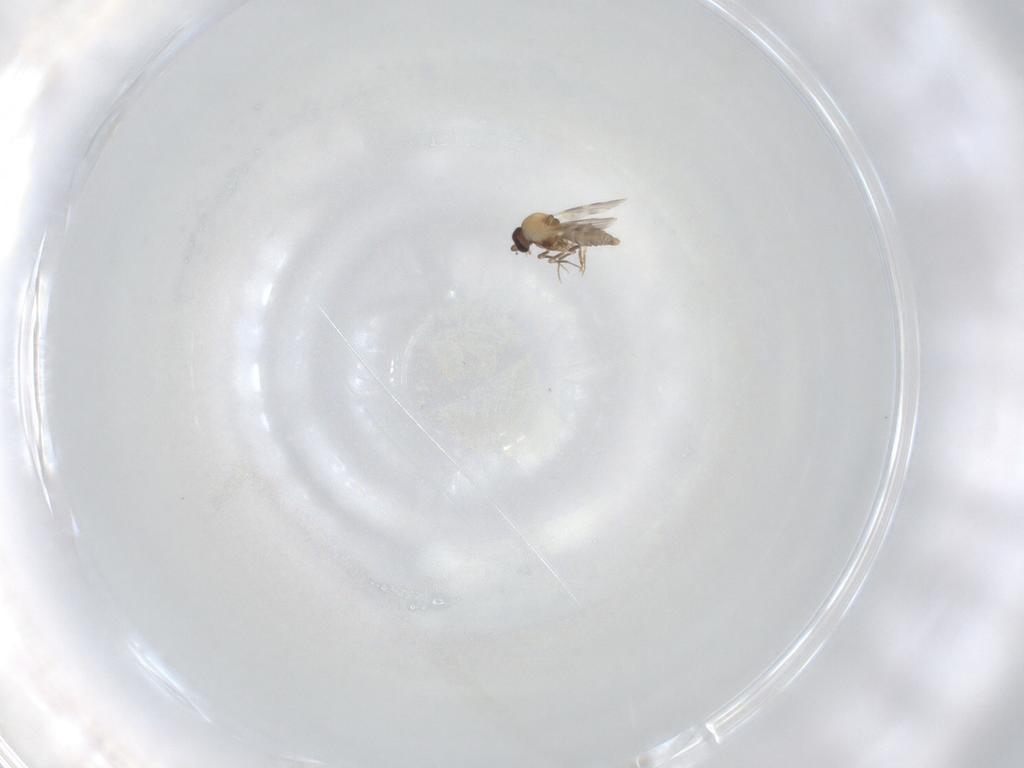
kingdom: Animalia
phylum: Arthropoda
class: Insecta
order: Diptera
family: Ceratopogonidae
